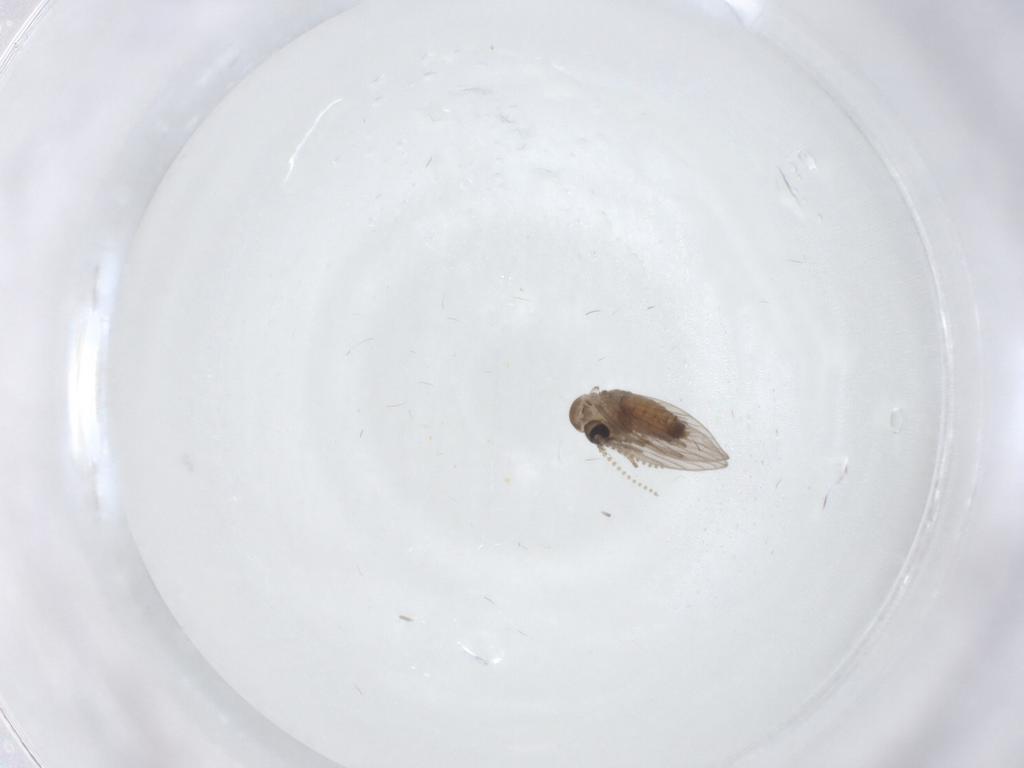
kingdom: Animalia
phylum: Arthropoda
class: Insecta
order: Diptera
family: Psychodidae
